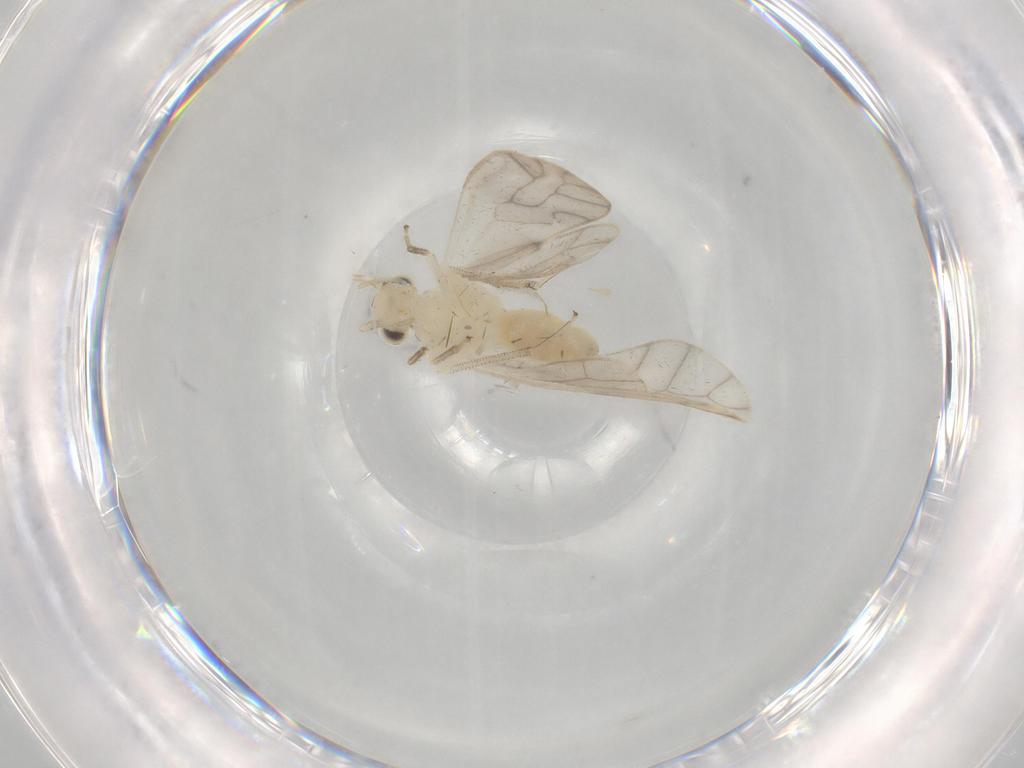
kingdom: Animalia
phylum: Arthropoda
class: Insecta
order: Psocodea
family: Caeciliusidae
